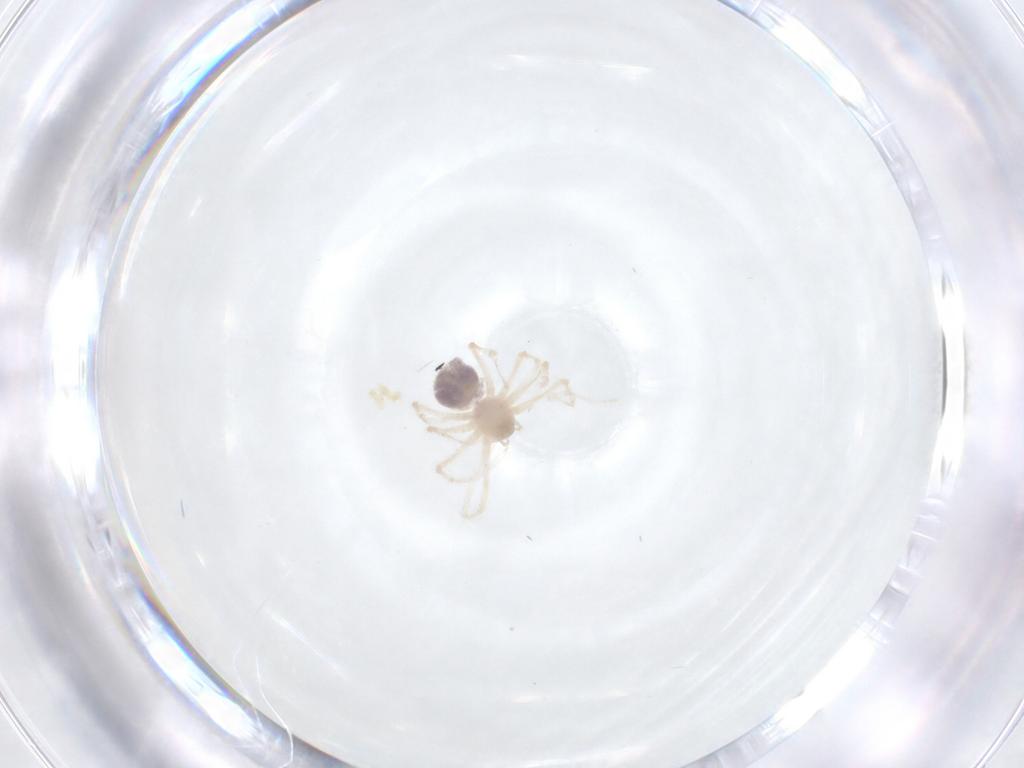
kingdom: Animalia
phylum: Arthropoda
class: Arachnida
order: Araneae
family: Pholcidae
